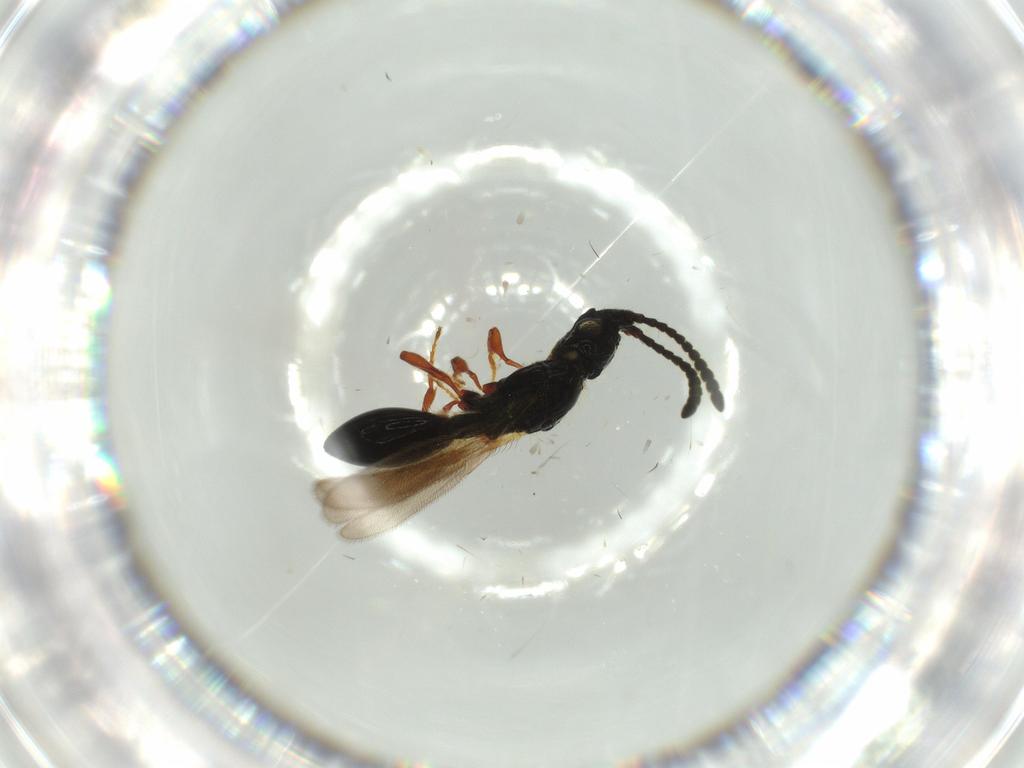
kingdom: Animalia
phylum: Arthropoda
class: Insecta
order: Hymenoptera
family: Diapriidae
